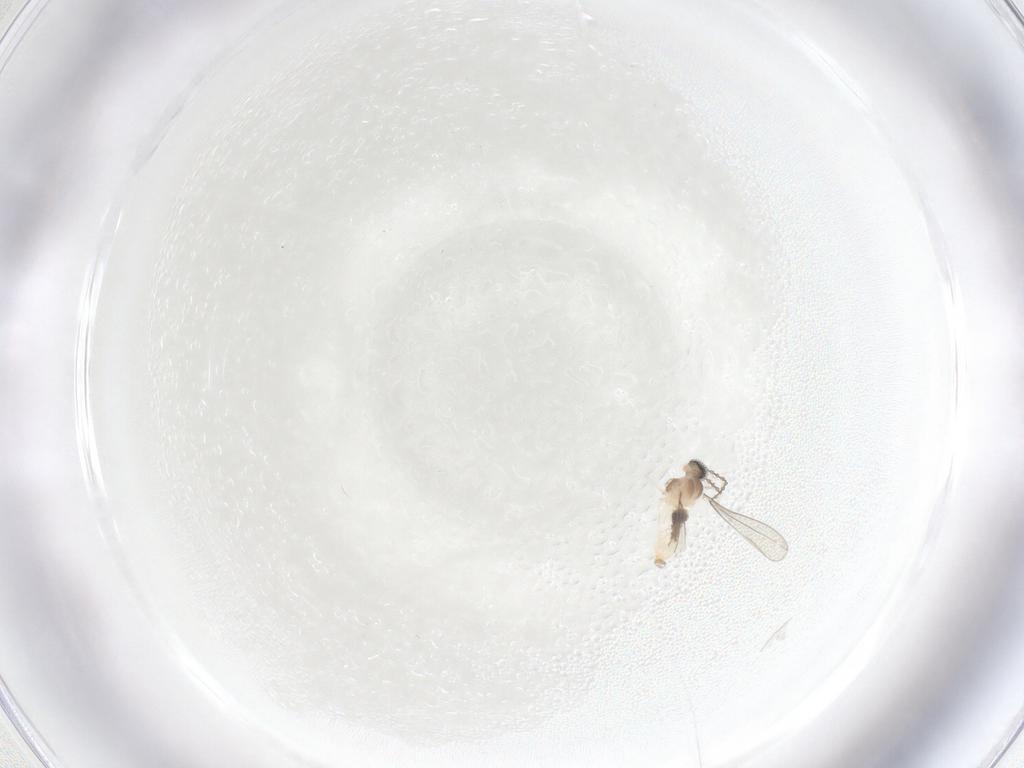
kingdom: Animalia
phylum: Arthropoda
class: Insecta
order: Diptera
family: Cecidomyiidae
